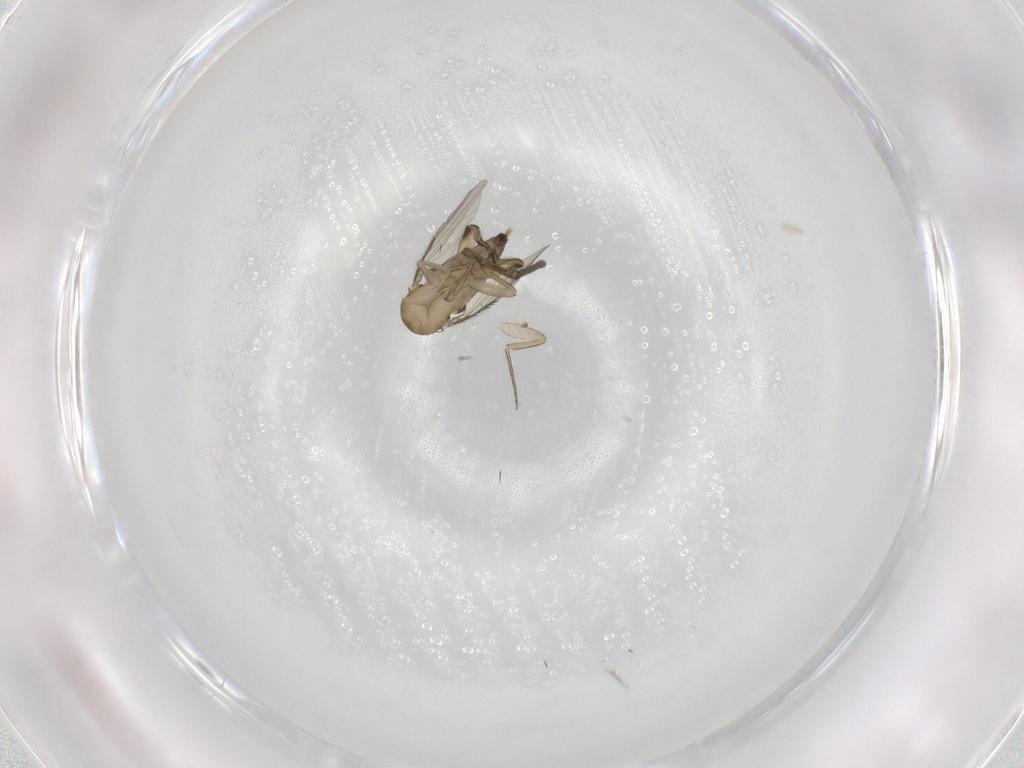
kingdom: Animalia
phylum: Arthropoda
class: Insecta
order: Diptera
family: Phoridae
